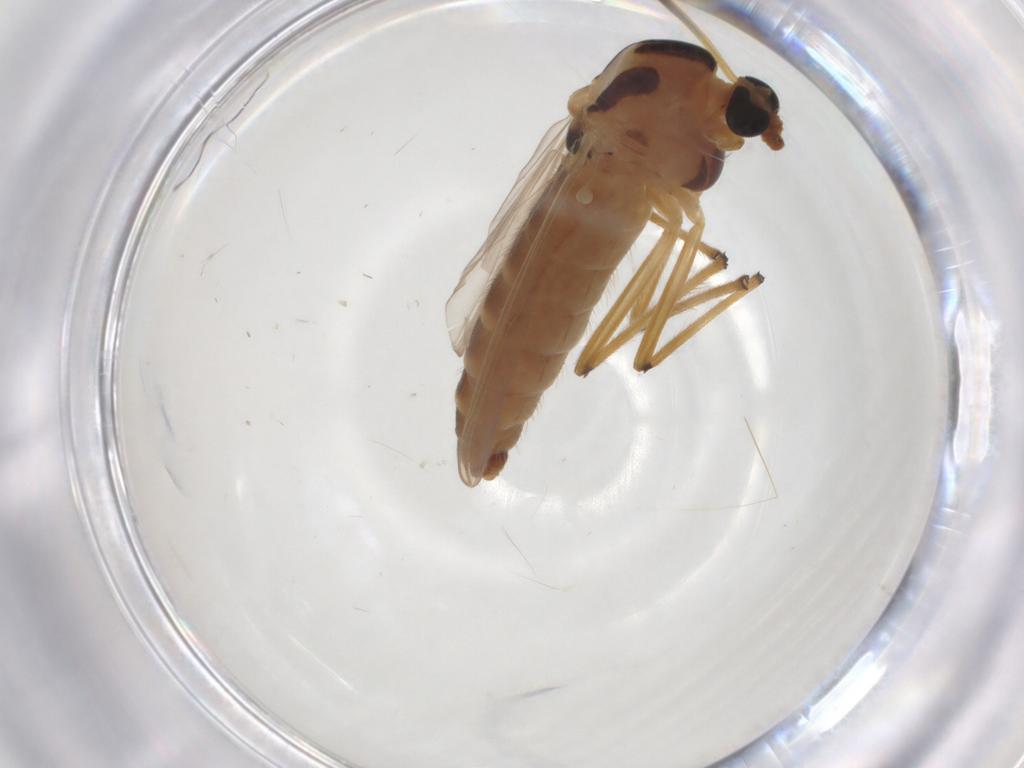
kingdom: Animalia
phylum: Arthropoda
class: Insecta
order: Diptera
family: Chironomidae
